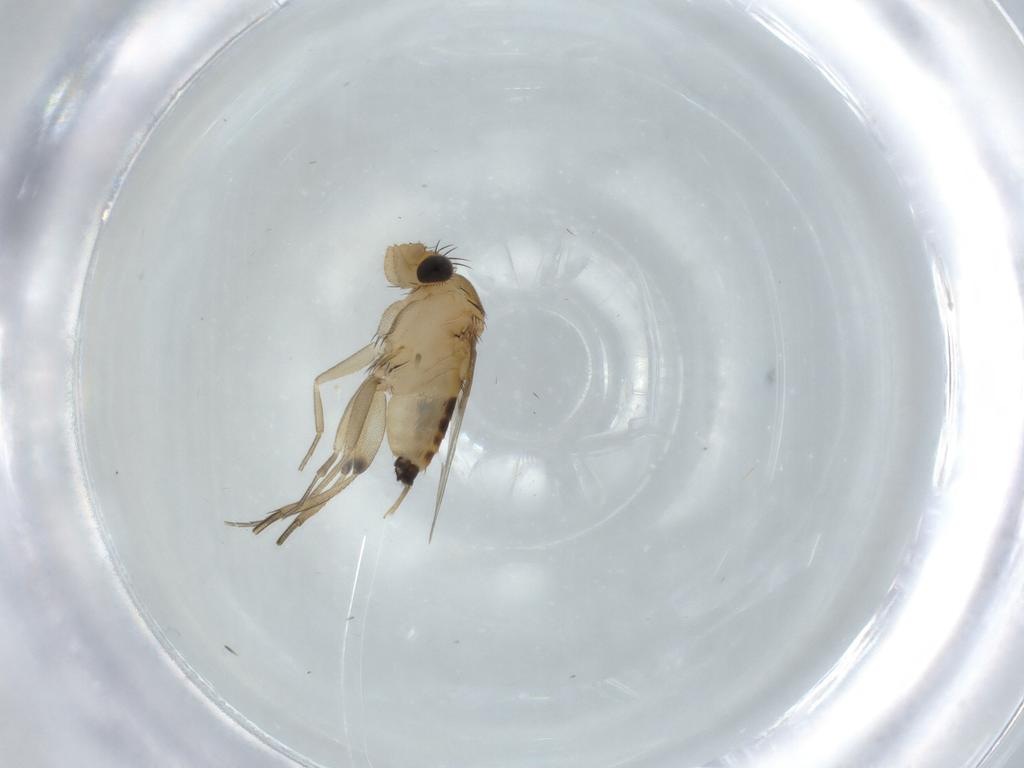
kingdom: Animalia
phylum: Arthropoda
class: Insecta
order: Diptera
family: Phoridae
